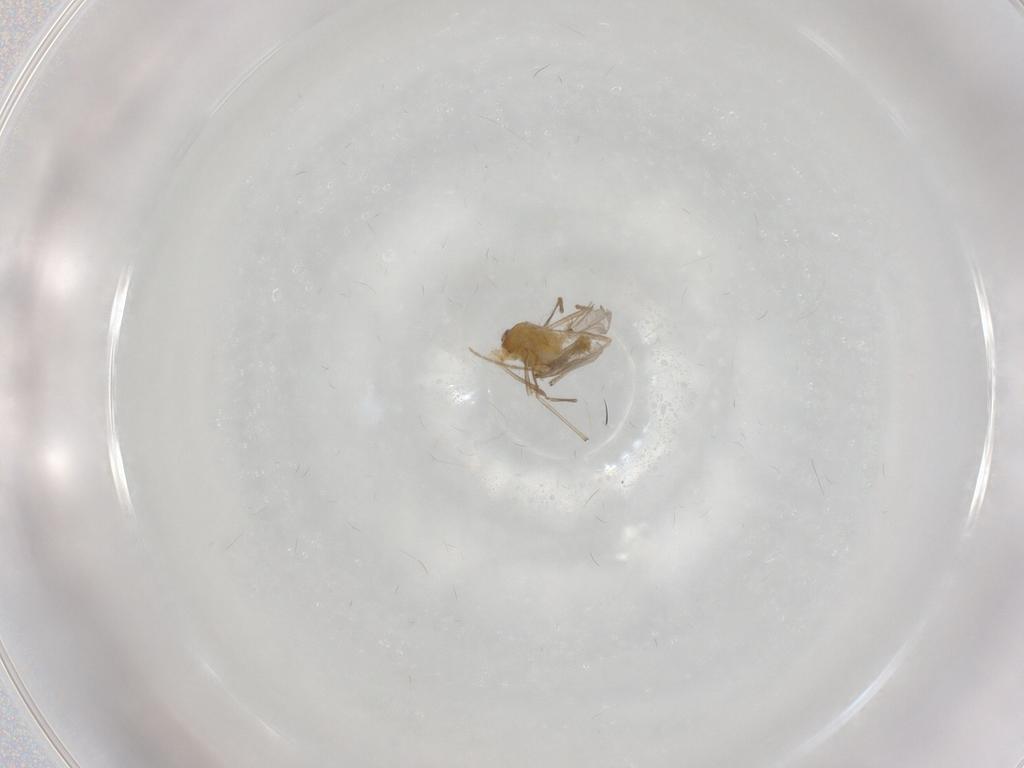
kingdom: Animalia
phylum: Arthropoda
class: Insecta
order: Diptera
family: Chironomidae
